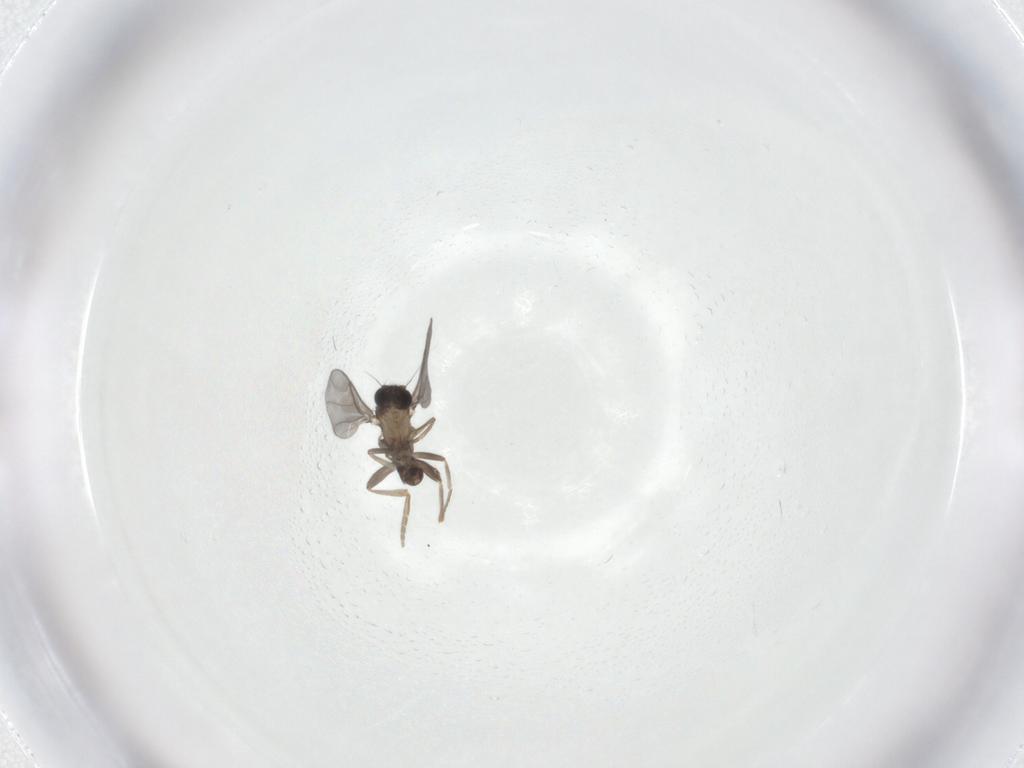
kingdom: Animalia
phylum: Arthropoda
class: Insecta
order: Diptera
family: Phoridae
